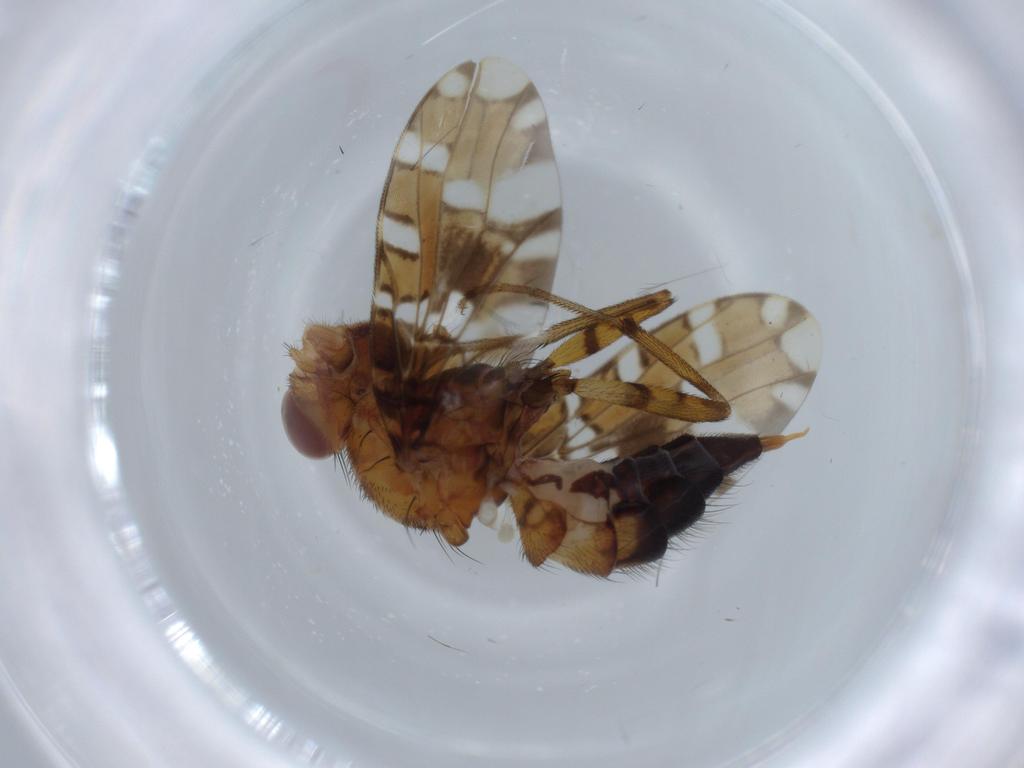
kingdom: Animalia
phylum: Arthropoda
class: Insecta
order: Diptera
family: Ulidiidae
